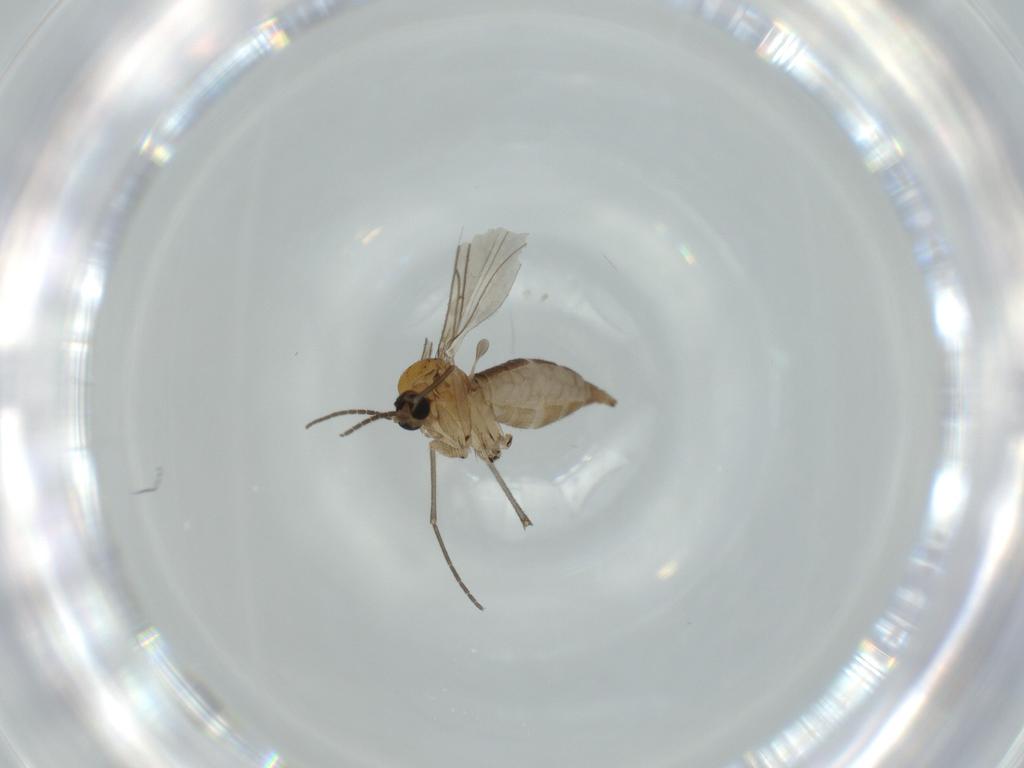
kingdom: Animalia
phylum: Arthropoda
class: Insecta
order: Diptera
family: Sciaridae
